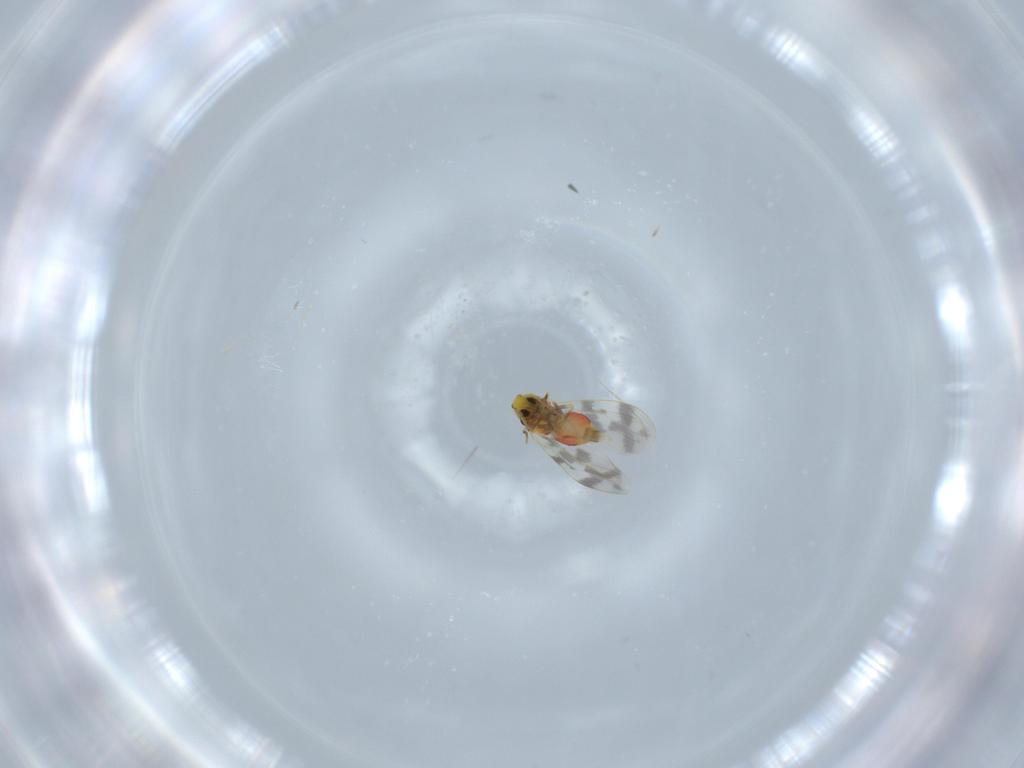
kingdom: Animalia
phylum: Arthropoda
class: Insecta
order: Hemiptera
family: Aleyrodidae
